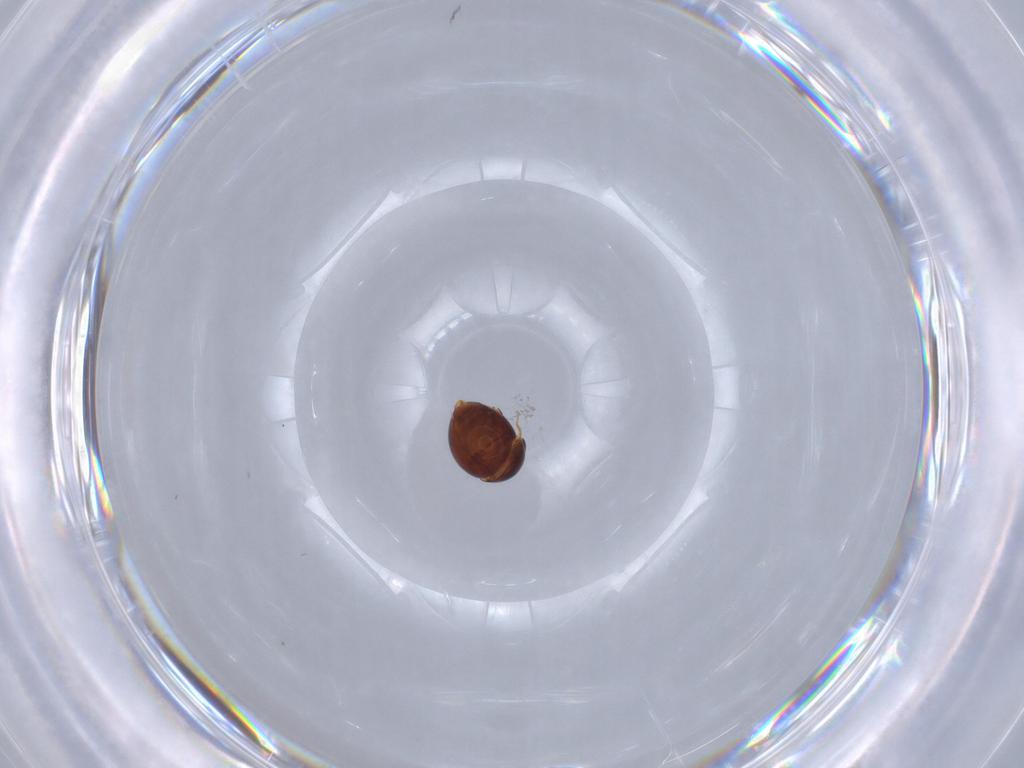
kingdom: Animalia
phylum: Arthropoda
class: Insecta
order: Coleoptera
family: Clambidae
